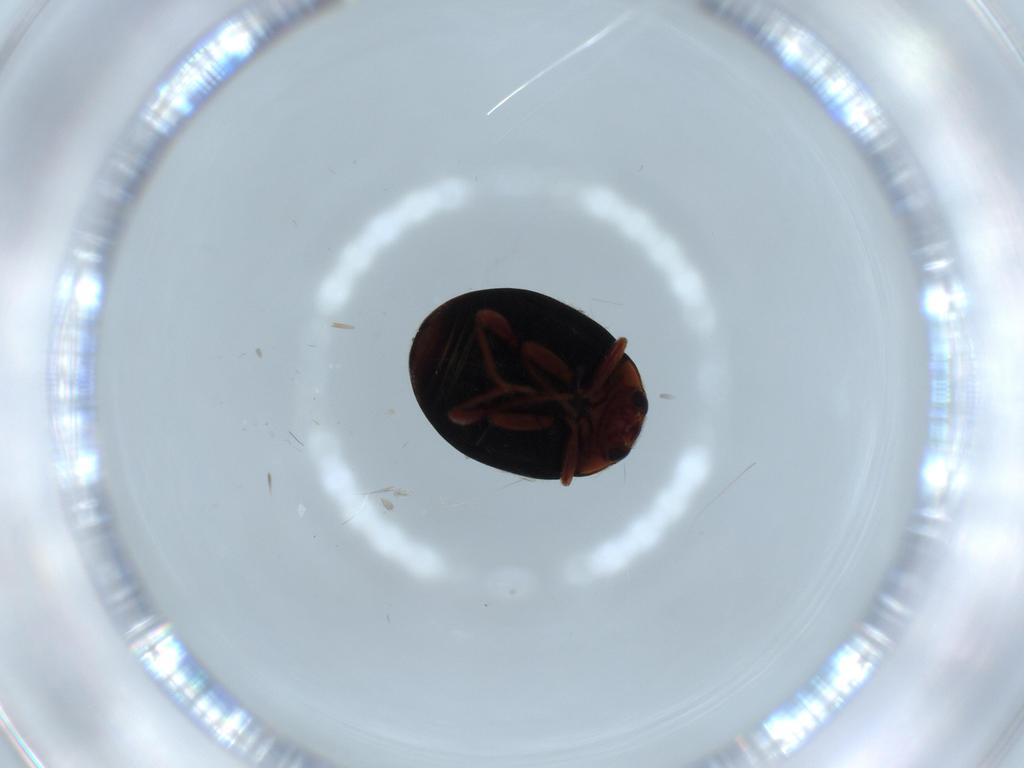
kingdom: Animalia
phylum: Arthropoda
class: Insecta
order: Coleoptera
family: Coccinellidae
